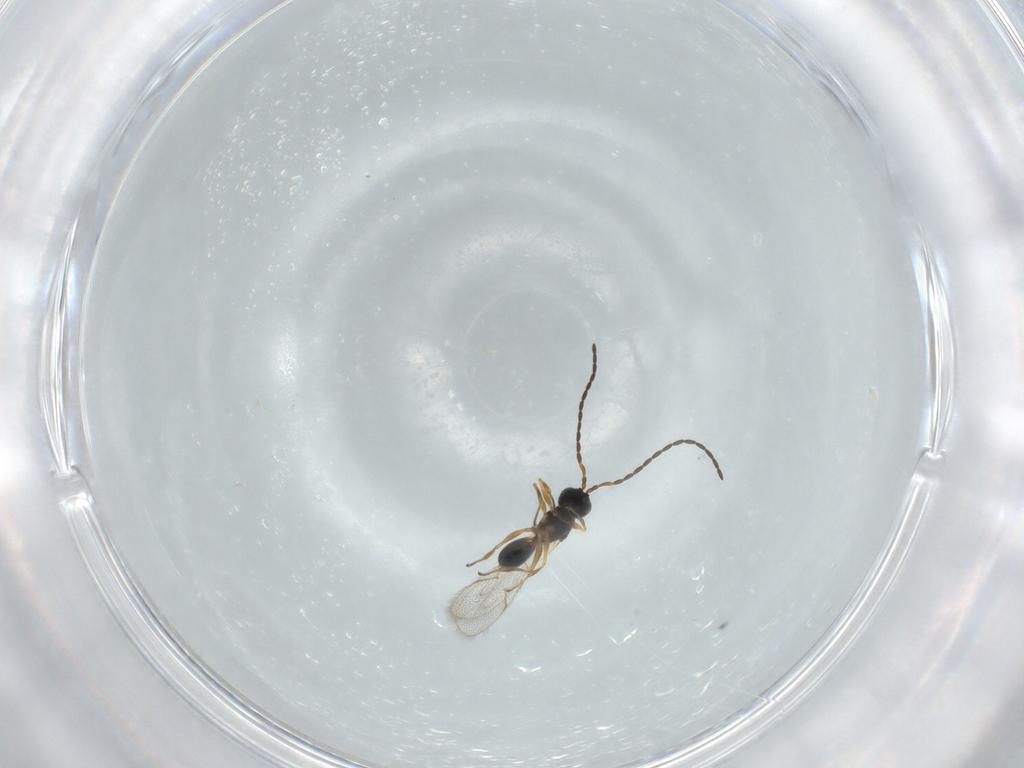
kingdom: Animalia
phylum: Arthropoda
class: Insecta
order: Hymenoptera
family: Figitidae
